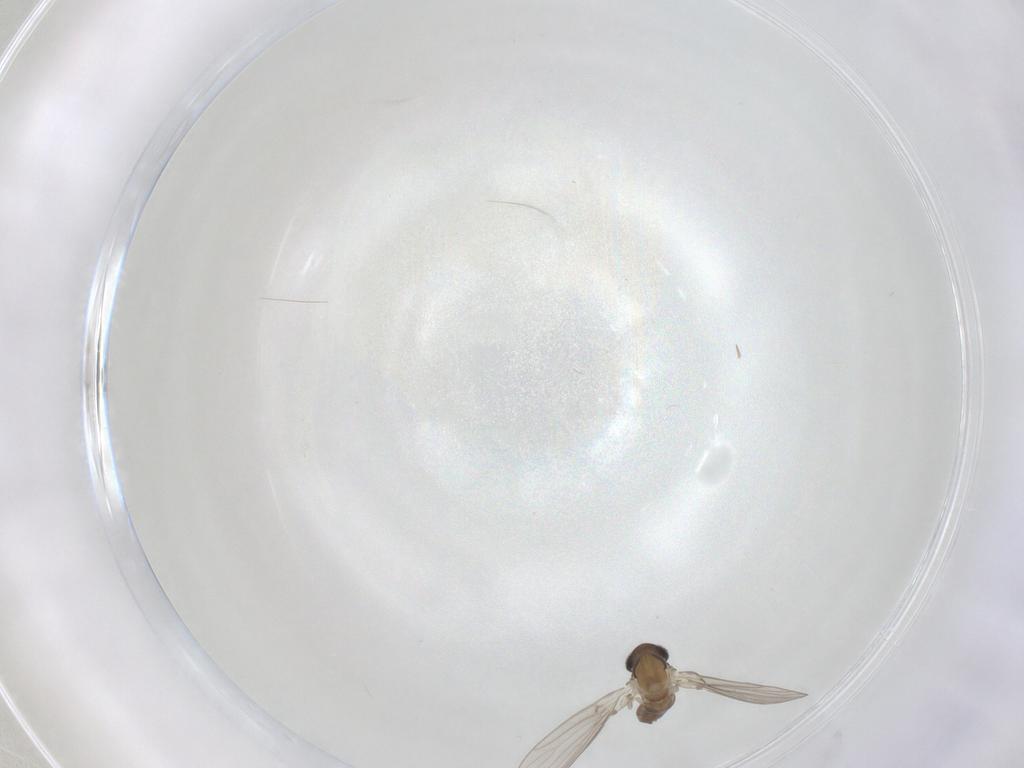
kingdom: Animalia
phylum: Arthropoda
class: Insecta
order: Diptera
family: Psychodidae
